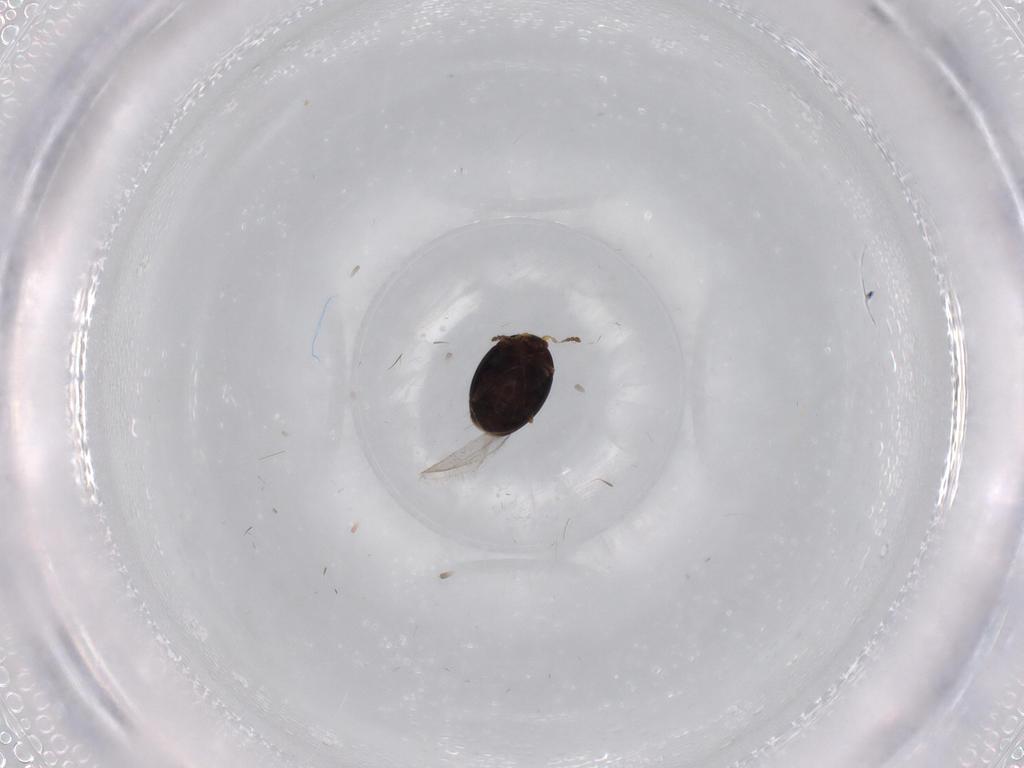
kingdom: Animalia
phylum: Arthropoda
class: Insecta
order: Coleoptera
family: Corylophidae
